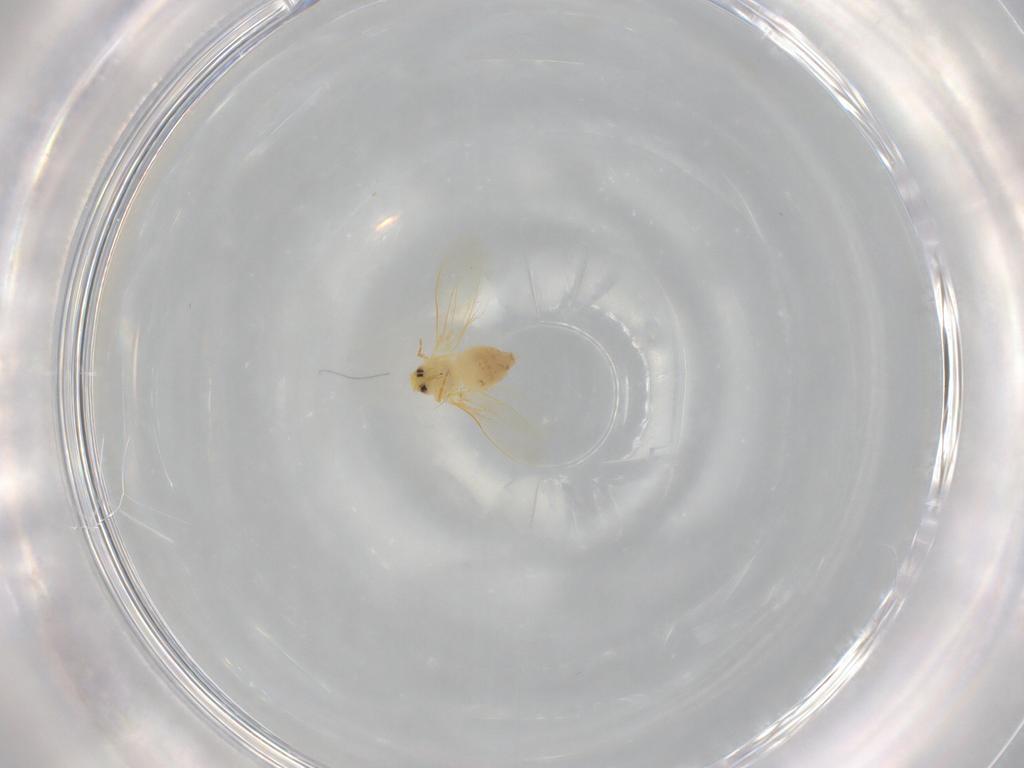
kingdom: Animalia
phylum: Arthropoda
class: Insecta
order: Hemiptera
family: Aleyrodidae
